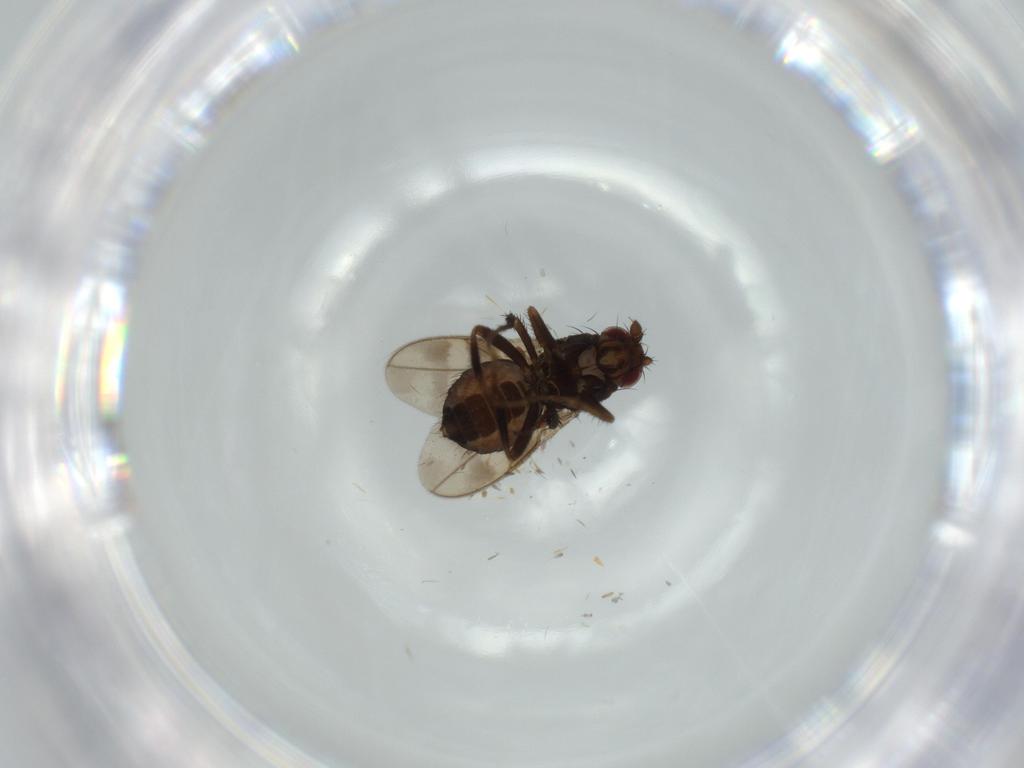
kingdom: Animalia
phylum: Arthropoda
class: Insecta
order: Diptera
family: Sphaeroceridae
